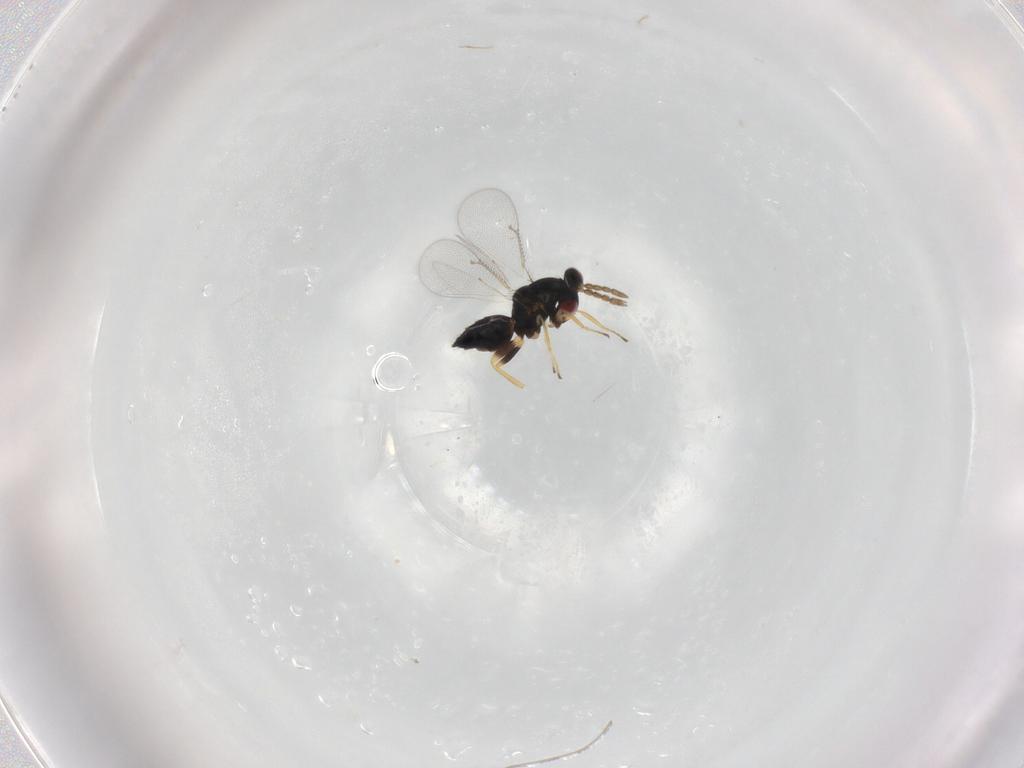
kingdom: Animalia
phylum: Arthropoda
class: Insecta
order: Hymenoptera
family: Eulophidae
